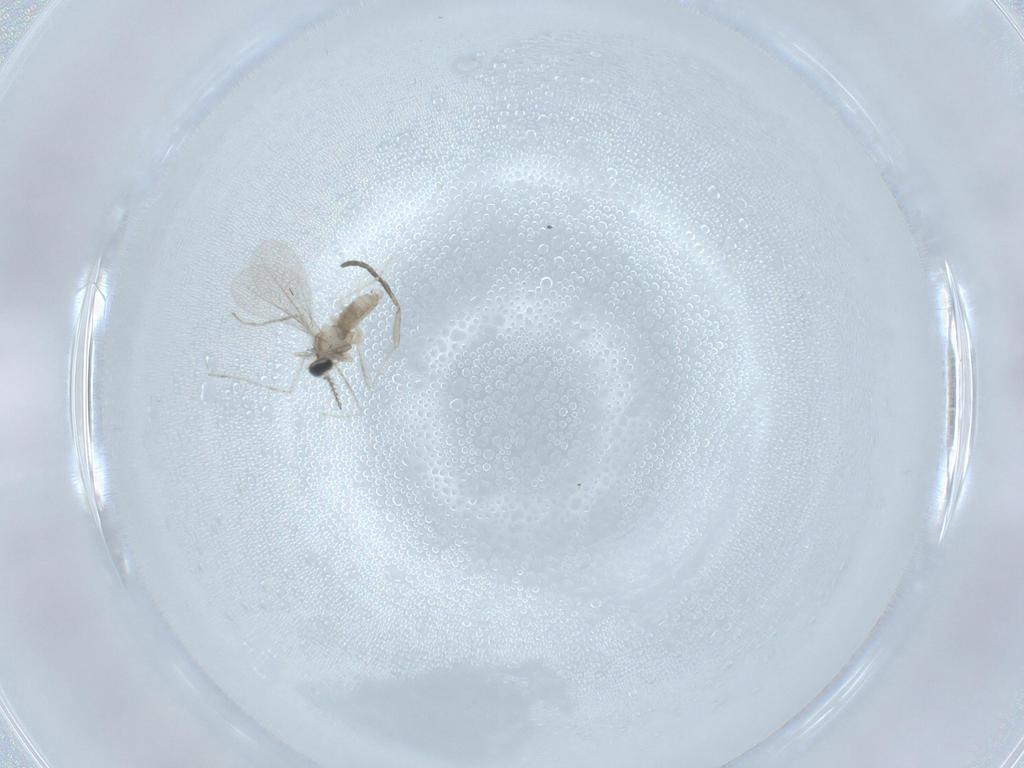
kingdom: Animalia
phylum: Arthropoda
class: Insecta
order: Diptera
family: Cecidomyiidae
